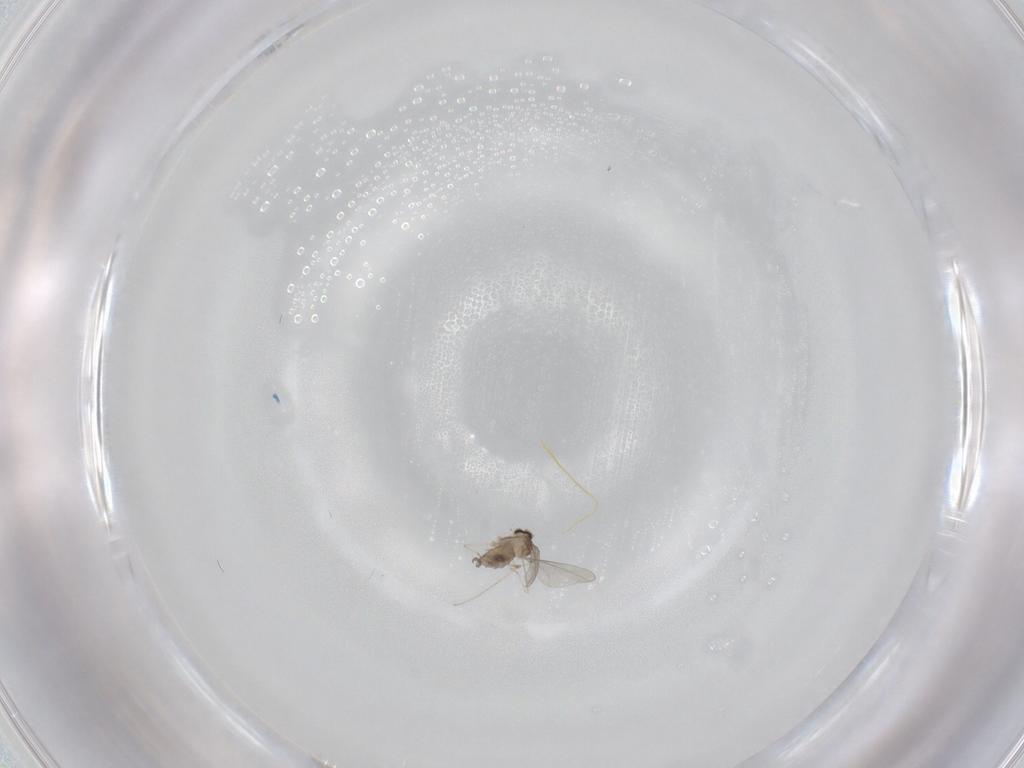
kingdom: Animalia
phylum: Arthropoda
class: Insecta
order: Diptera
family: Cecidomyiidae
